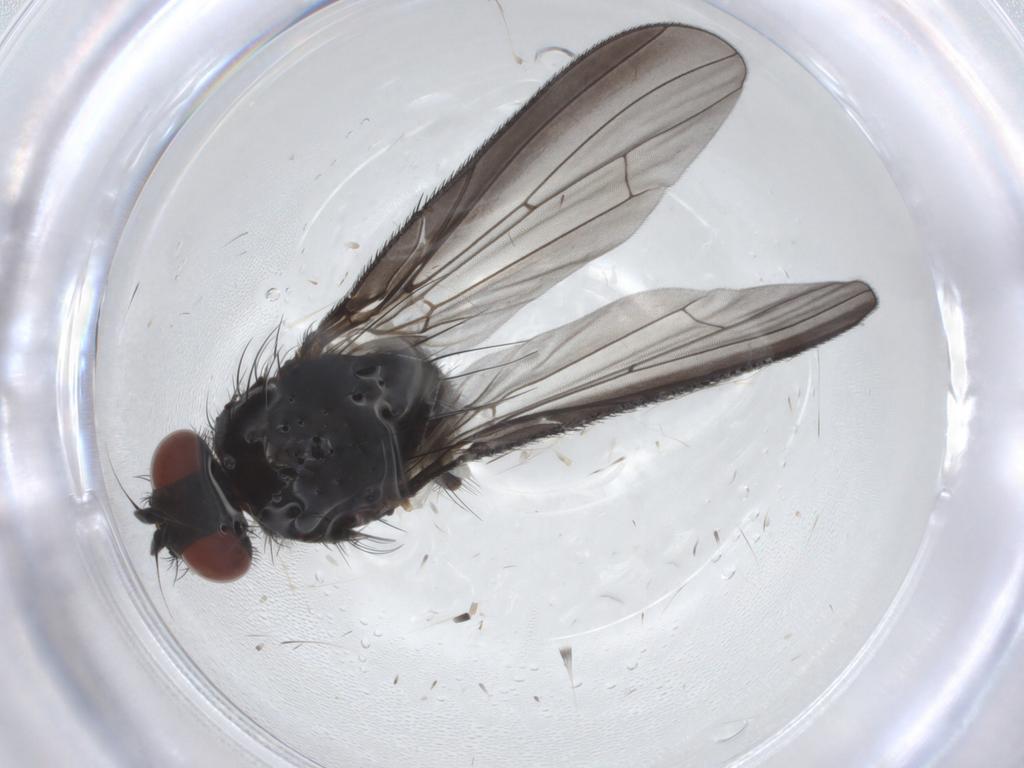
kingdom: Animalia
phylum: Arthropoda
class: Insecta
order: Diptera
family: Anthomyiidae
